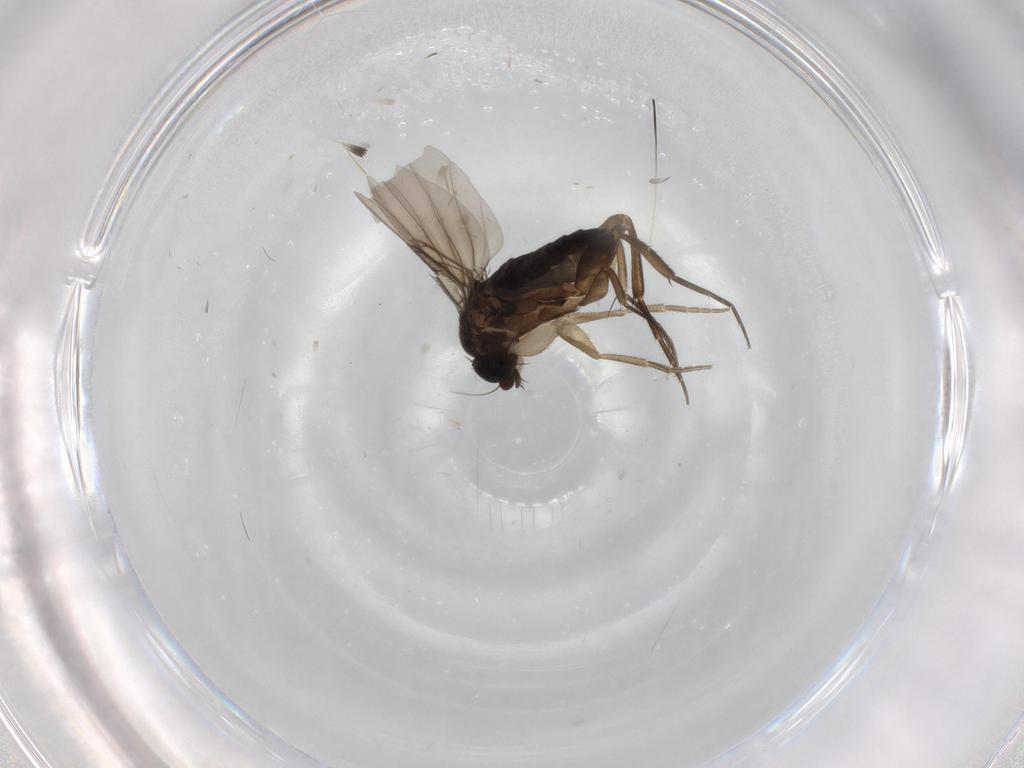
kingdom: Animalia
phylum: Arthropoda
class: Insecta
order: Diptera
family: Phoridae
